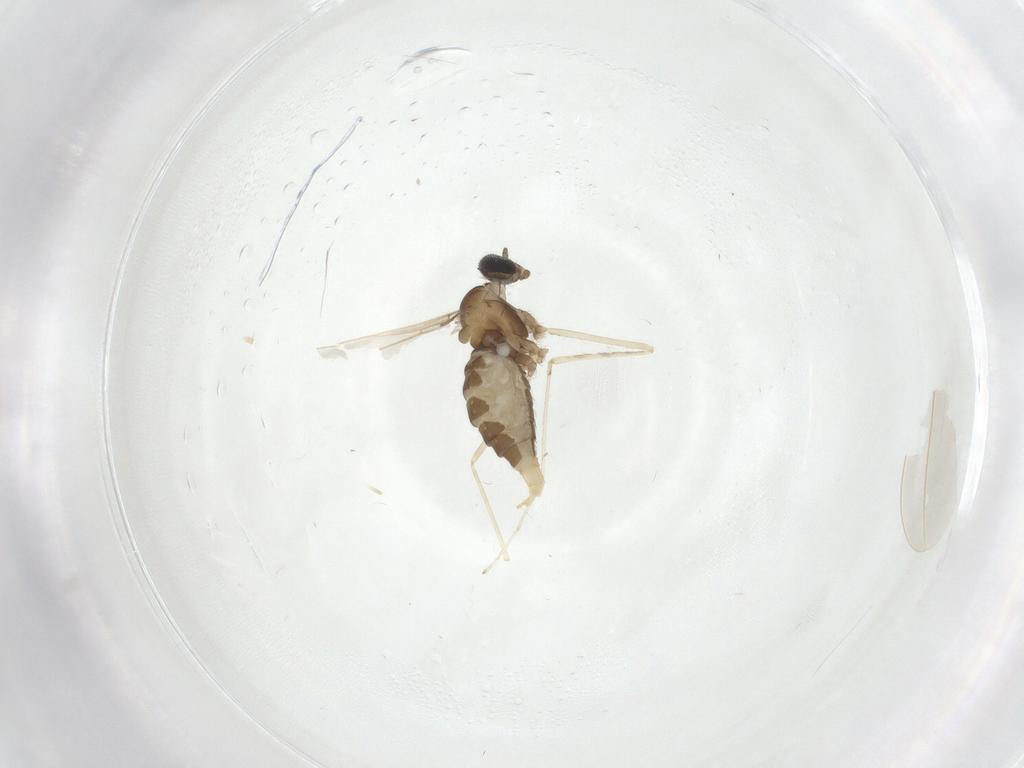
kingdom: Animalia
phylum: Arthropoda
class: Insecta
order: Diptera
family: Cecidomyiidae
